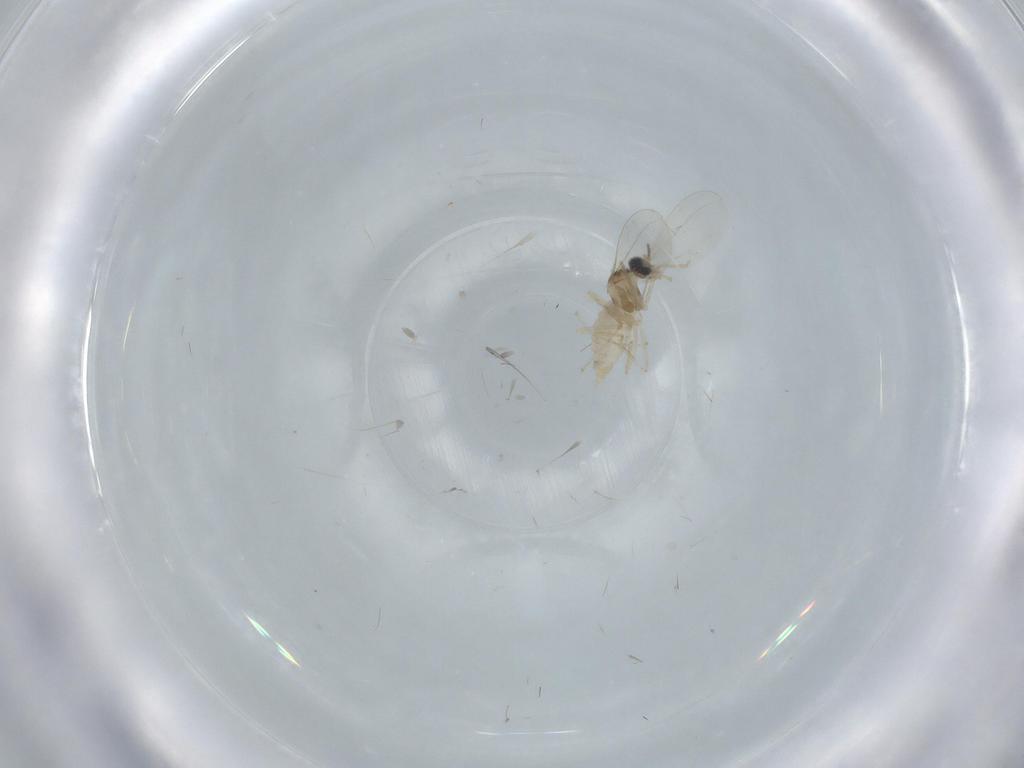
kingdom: Animalia
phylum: Arthropoda
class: Insecta
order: Diptera
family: Cecidomyiidae
